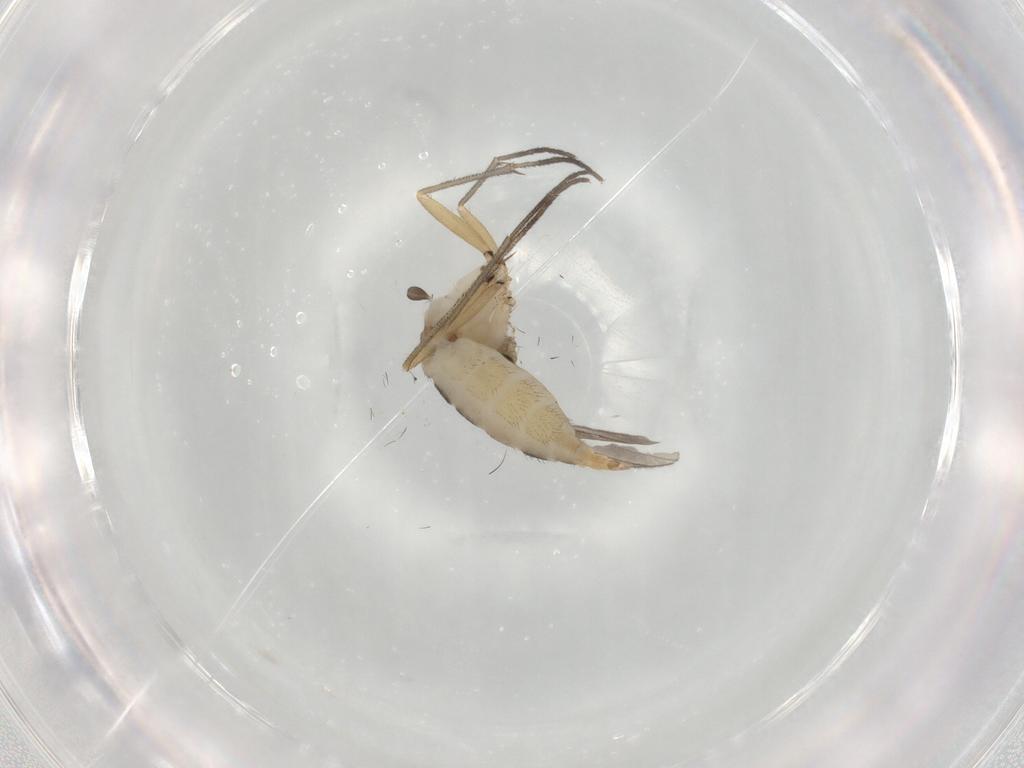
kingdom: Animalia
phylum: Arthropoda
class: Insecta
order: Diptera
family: Sciaridae
